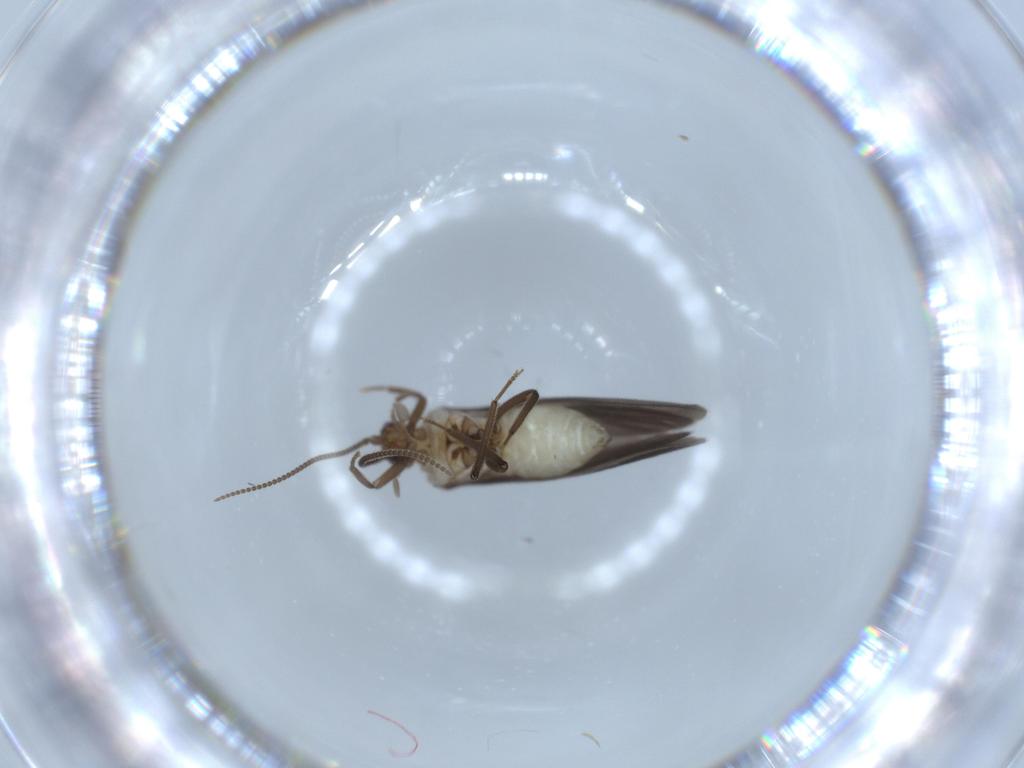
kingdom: Animalia
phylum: Arthropoda
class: Insecta
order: Neuroptera
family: Coniopterygidae
